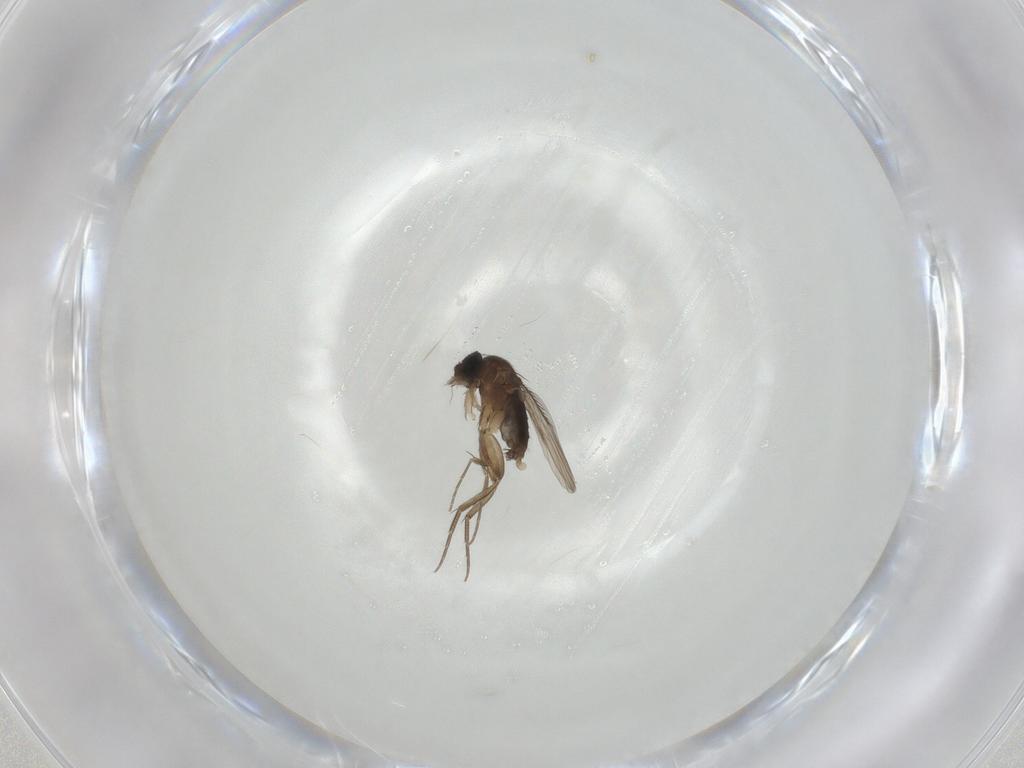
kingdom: Animalia
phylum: Arthropoda
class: Insecta
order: Diptera
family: Phoridae
